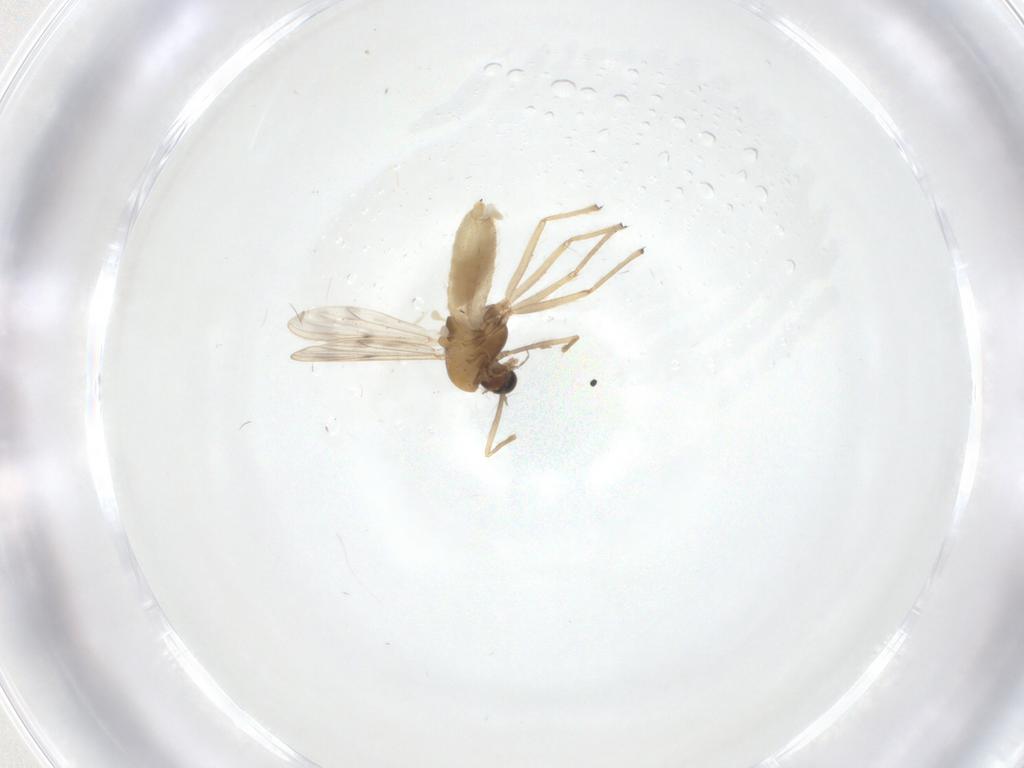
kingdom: Animalia
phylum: Arthropoda
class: Insecta
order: Diptera
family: Chironomidae
